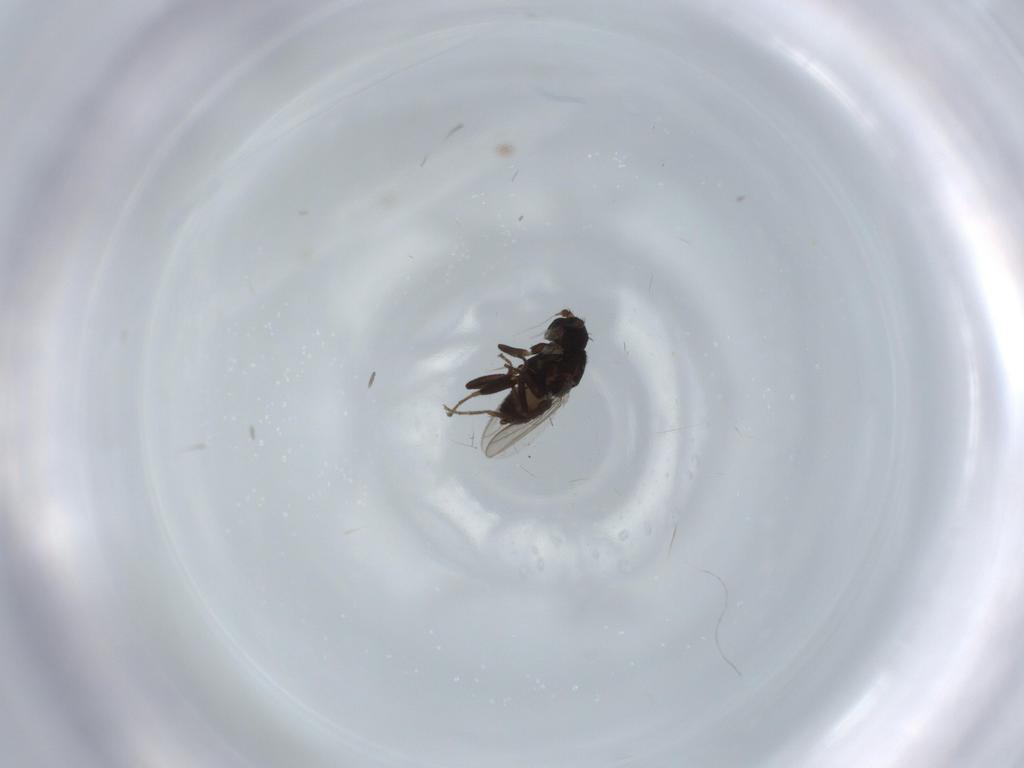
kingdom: Animalia
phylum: Arthropoda
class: Insecta
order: Diptera
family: Sphaeroceridae
